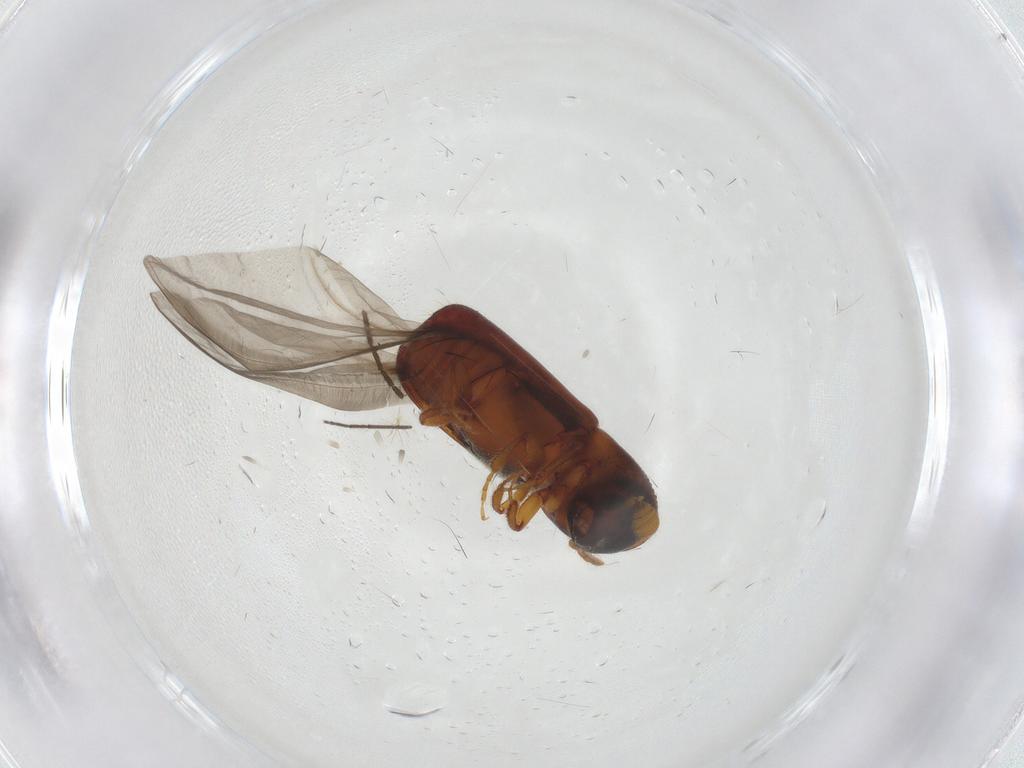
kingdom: Animalia
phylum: Arthropoda
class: Insecta
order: Coleoptera
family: Curculionidae
